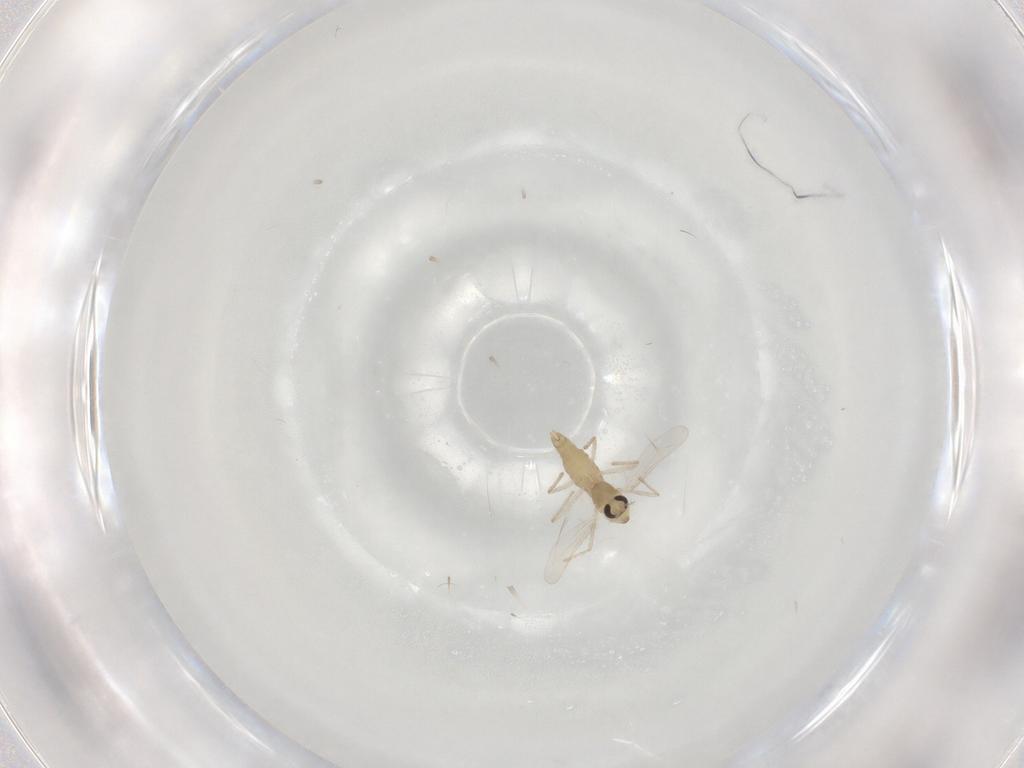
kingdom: Animalia
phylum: Arthropoda
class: Insecta
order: Diptera
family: Chironomidae
